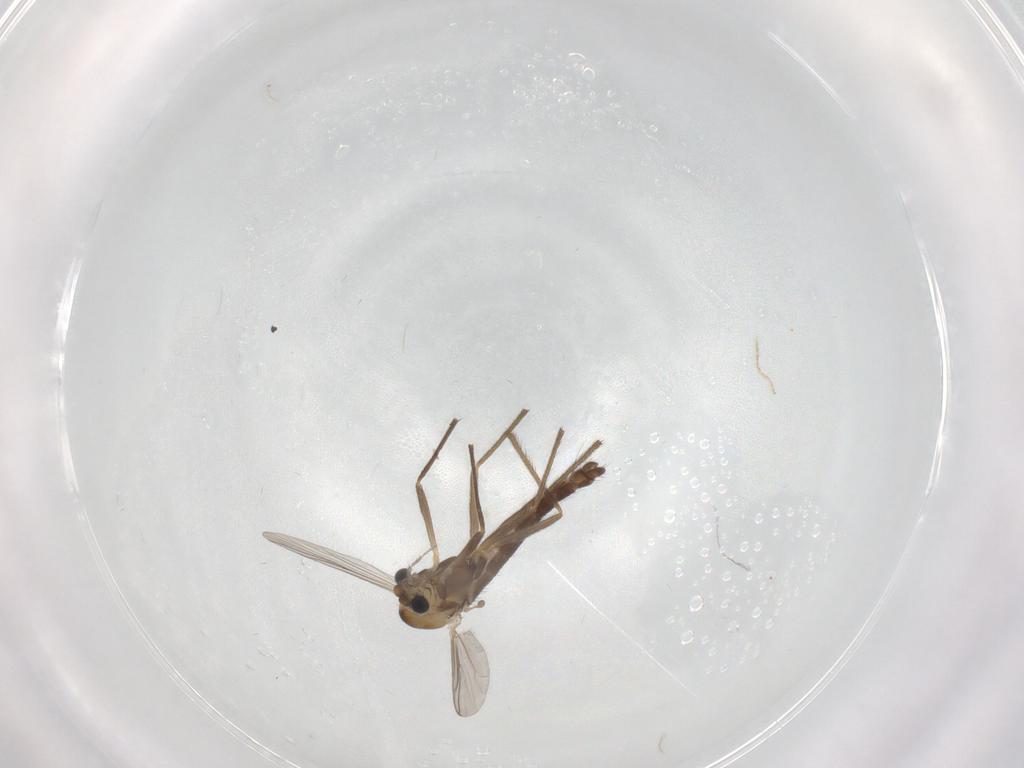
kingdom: Animalia
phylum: Arthropoda
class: Insecta
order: Diptera
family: Chironomidae
